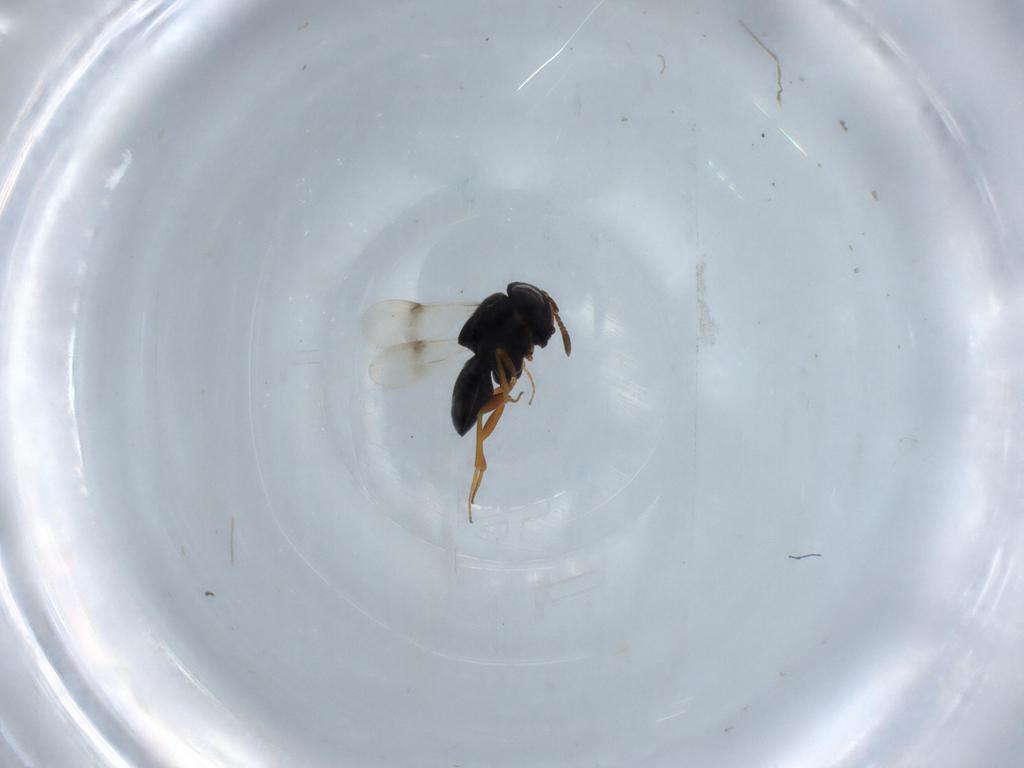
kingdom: Animalia
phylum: Arthropoda
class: Insecta
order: Hymenoptera
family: Scelionidae
